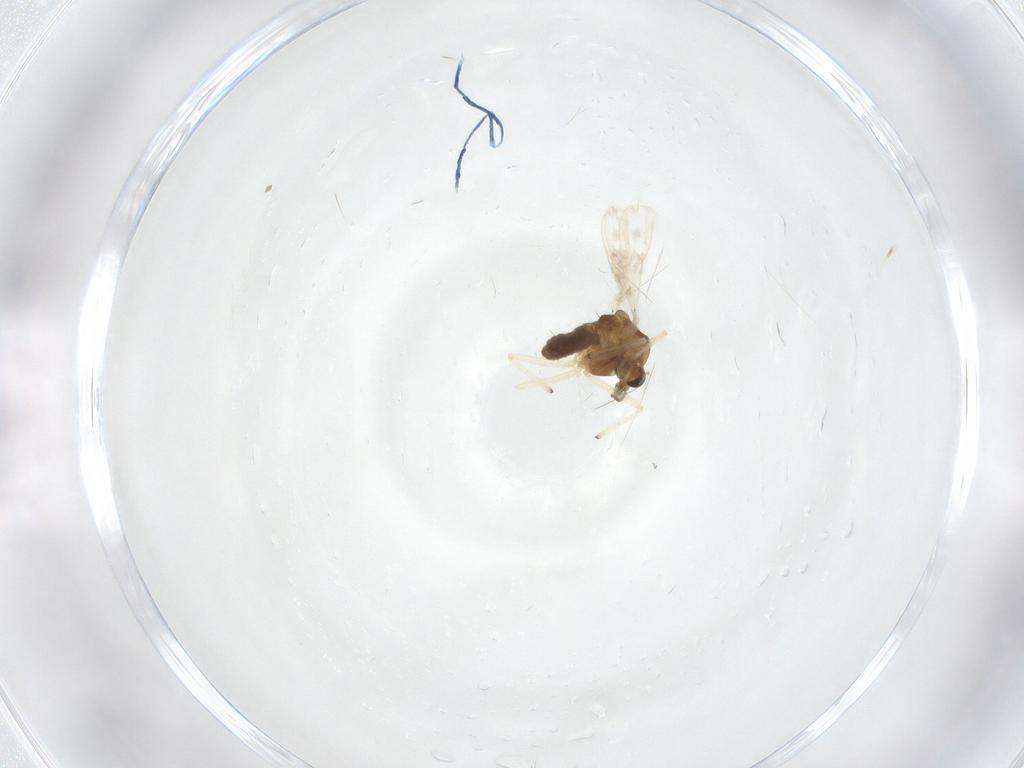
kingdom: Animalia
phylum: Arthropoda
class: Insecta
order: Diptera
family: Chironomidae
